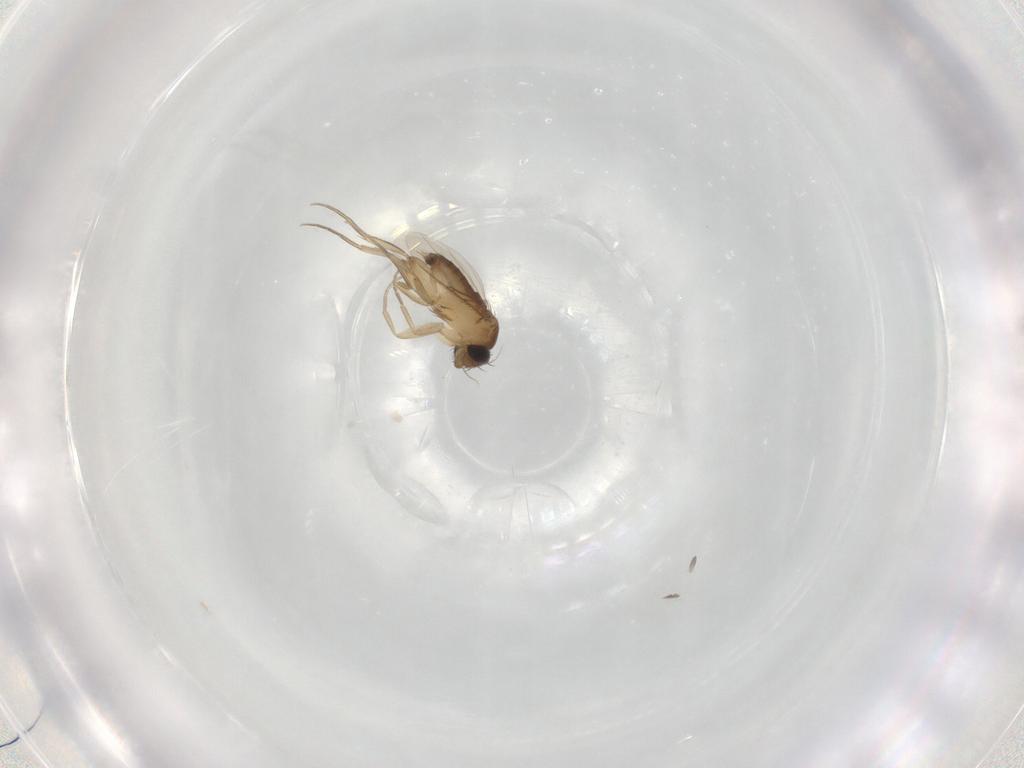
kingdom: Animalia
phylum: Arthropoda
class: Insecta
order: Diptera
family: Phoridae
